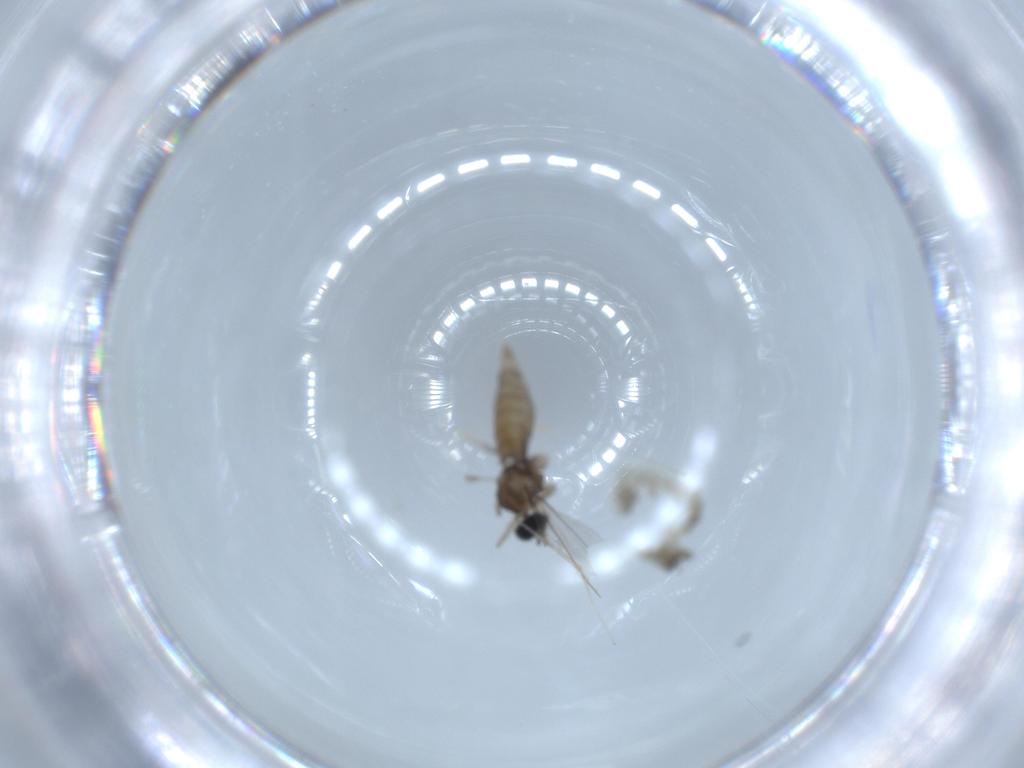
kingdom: Animalia
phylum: Arthropoda
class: Insecta
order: Diptera
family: Cecidomyiidae
